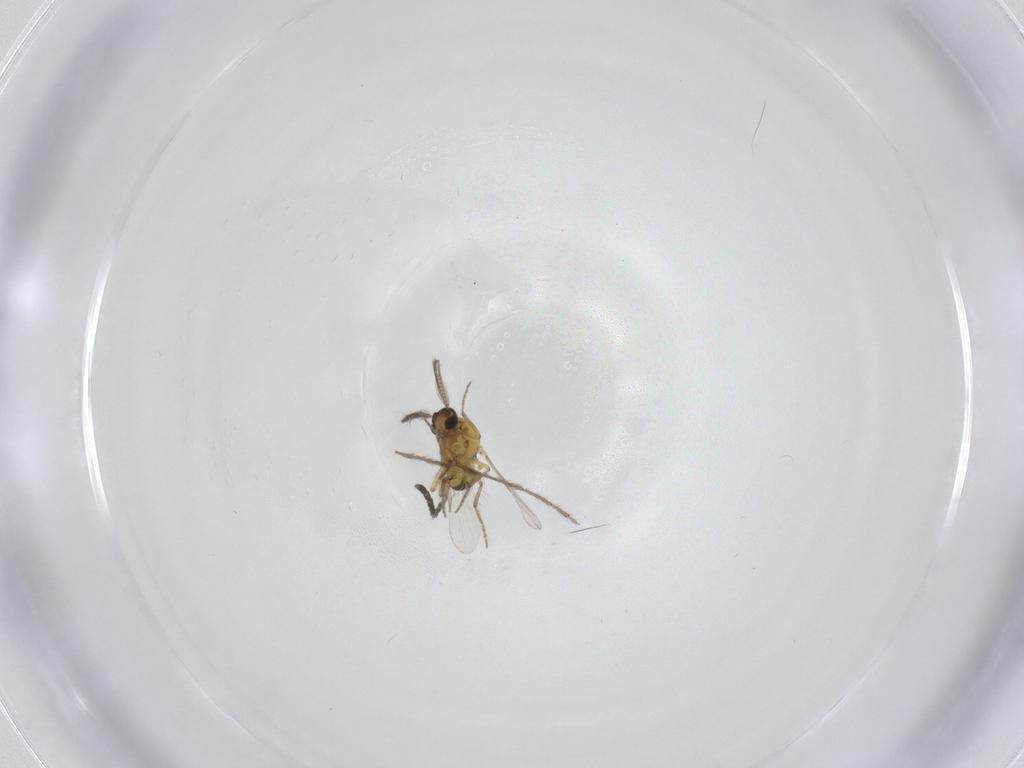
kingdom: Animalia
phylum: Arthropoda
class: Insecta
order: Diptera
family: Ceratopogonidae
